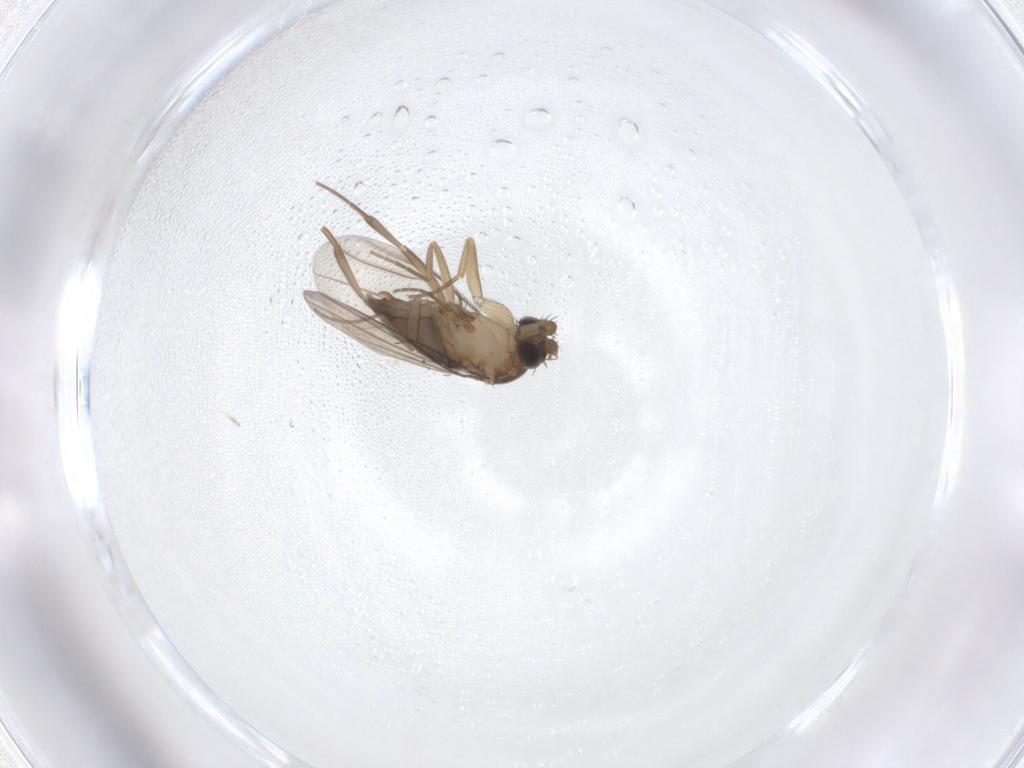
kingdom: Animalia
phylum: Arthropoda
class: Insecta
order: Diptera
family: Phoridae
